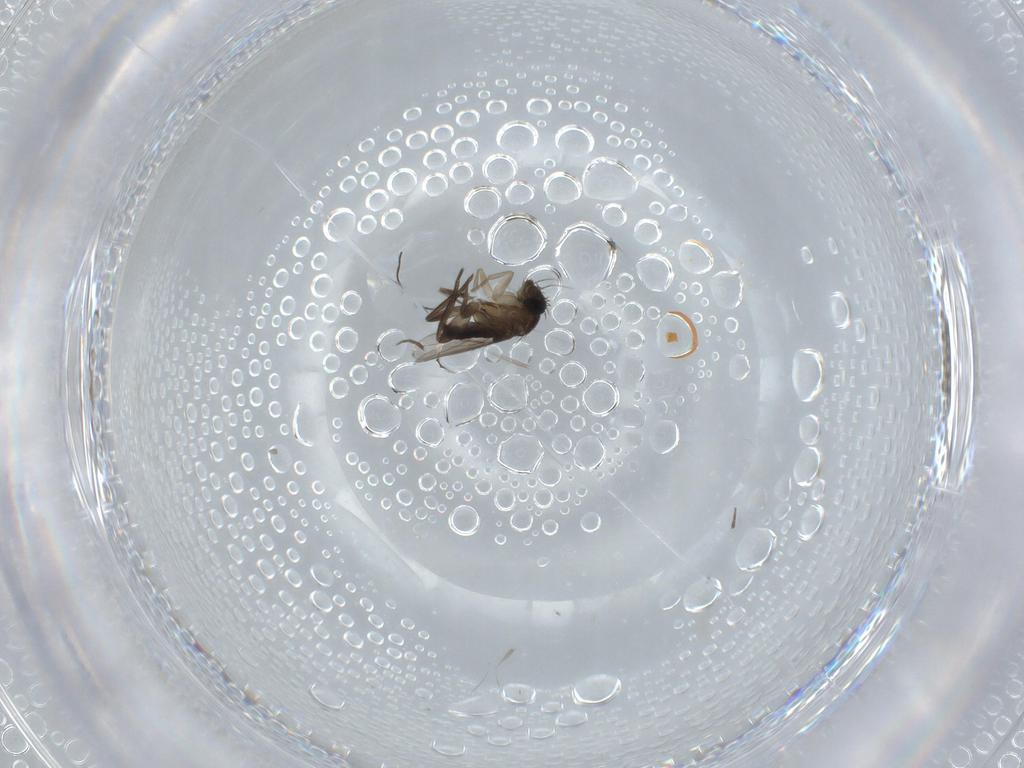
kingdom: Animalia
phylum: Arthropoda
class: Insecta
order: Diptera
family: Phoridae
